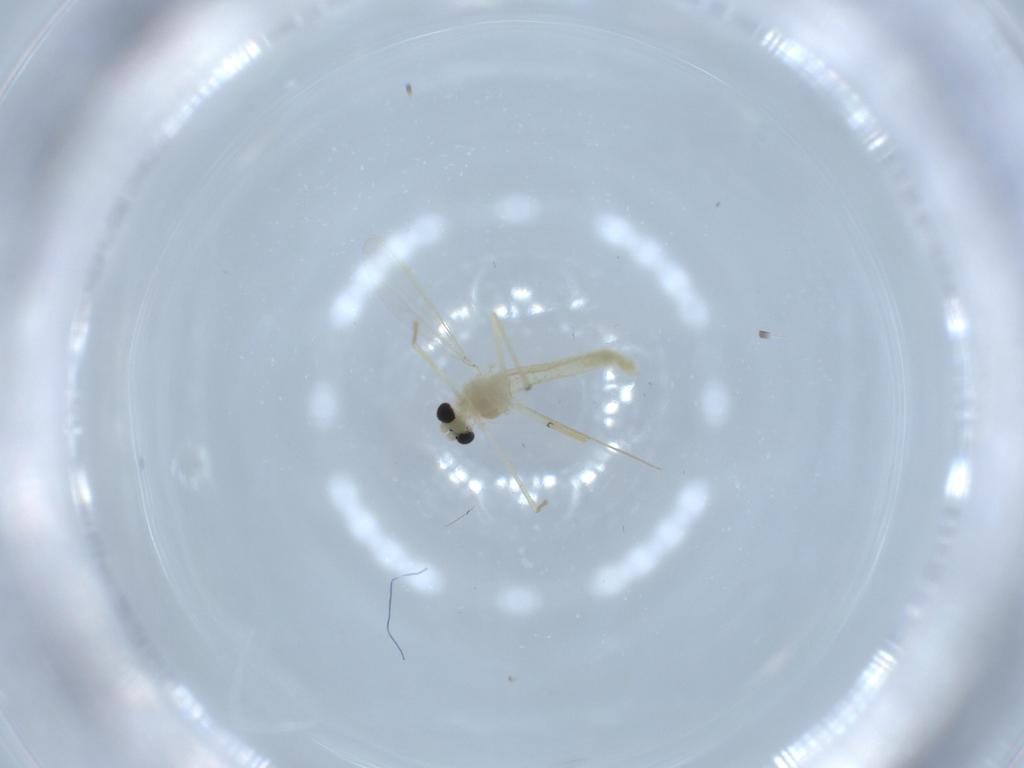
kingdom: Animalia
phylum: Arthropoda
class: Insecta
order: Diptera
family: Chironomidae
